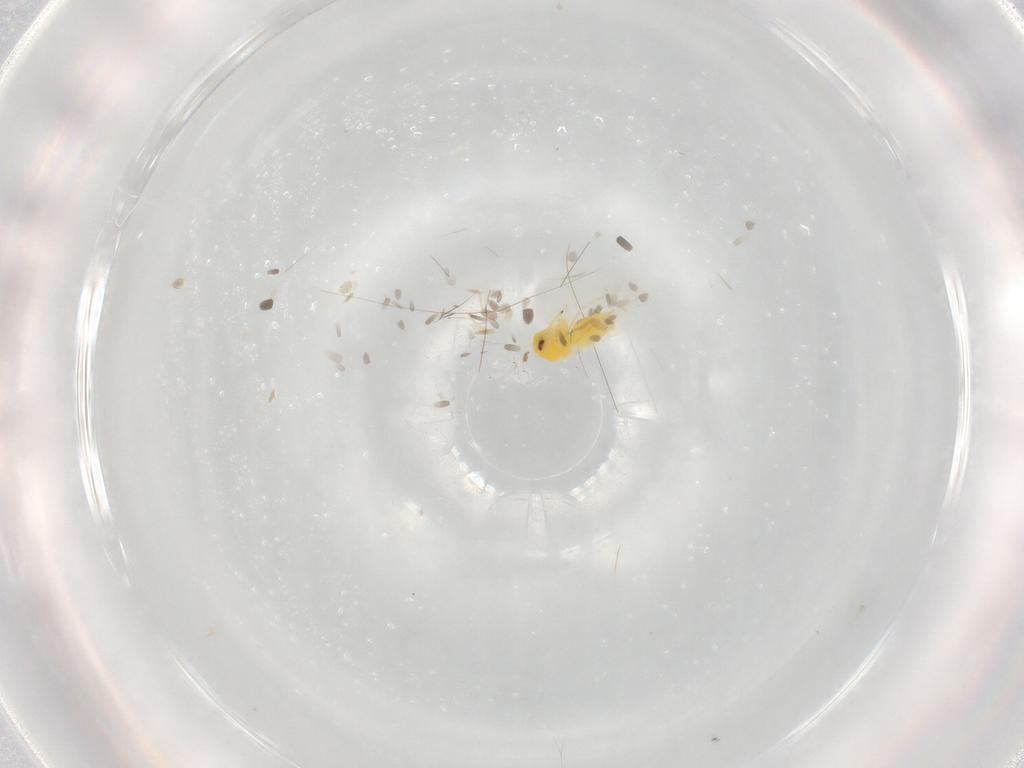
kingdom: Animalia
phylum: Arthropoda
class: Insecta
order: Hemiptera
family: Aleyrodidae
